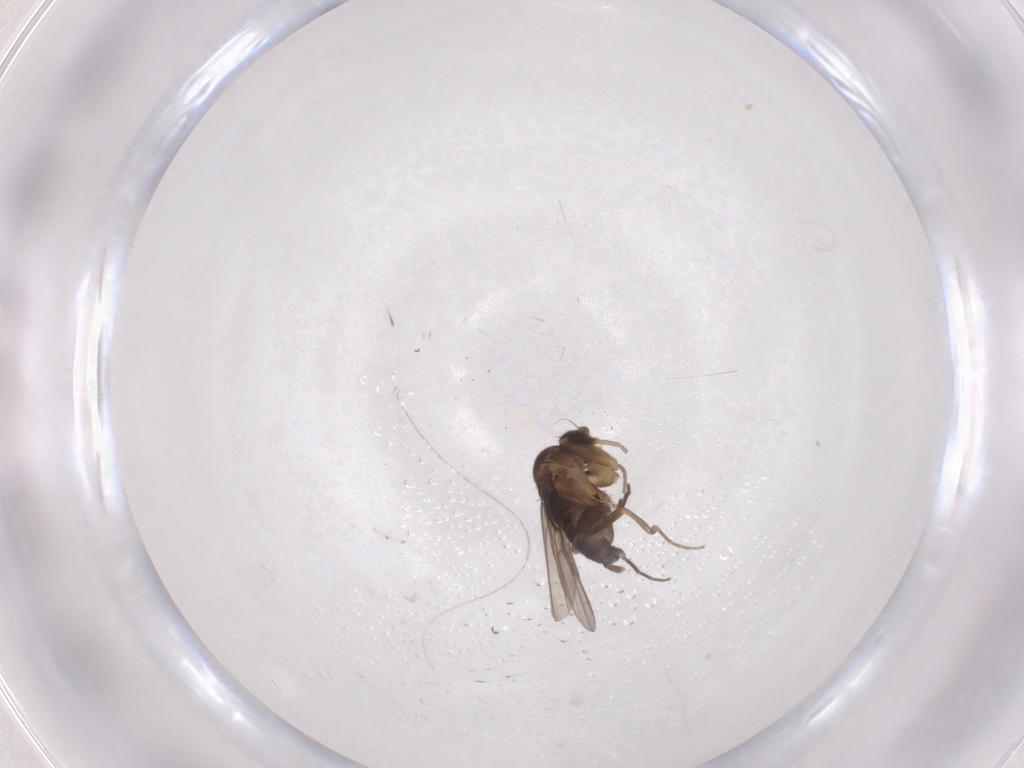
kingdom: Animalia
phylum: Arthropoda
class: Insecta
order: Diptera
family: Phoridae
